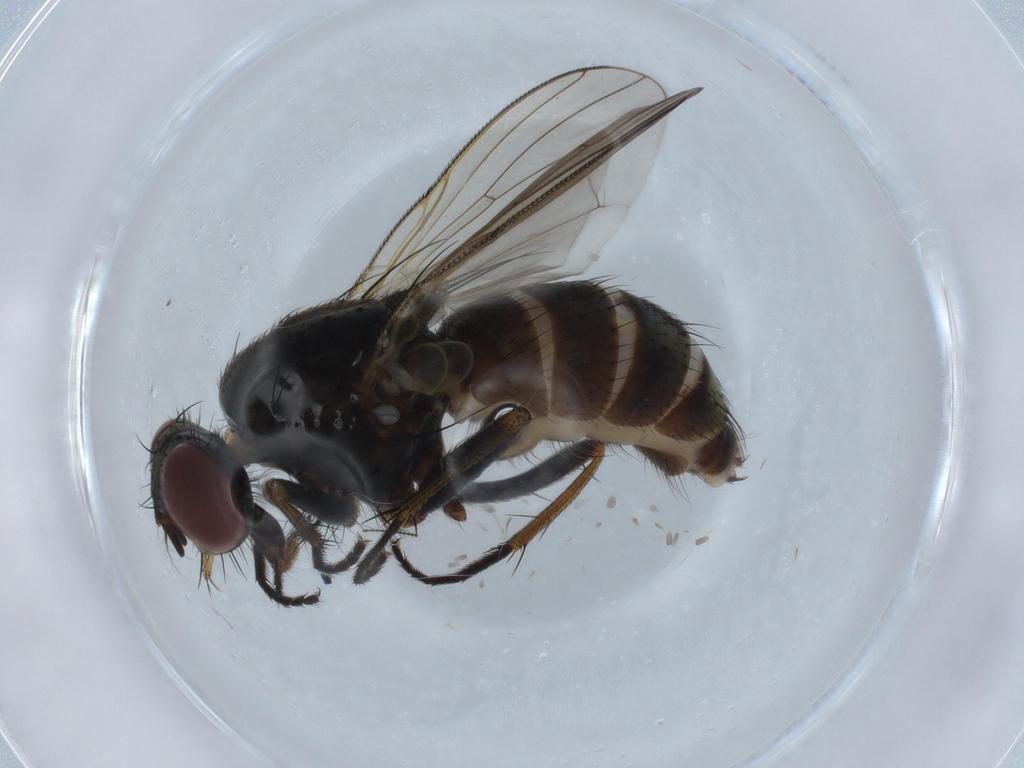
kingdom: Animalia
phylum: Arthropoda
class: Insecta
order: Diptera
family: Muscidae
